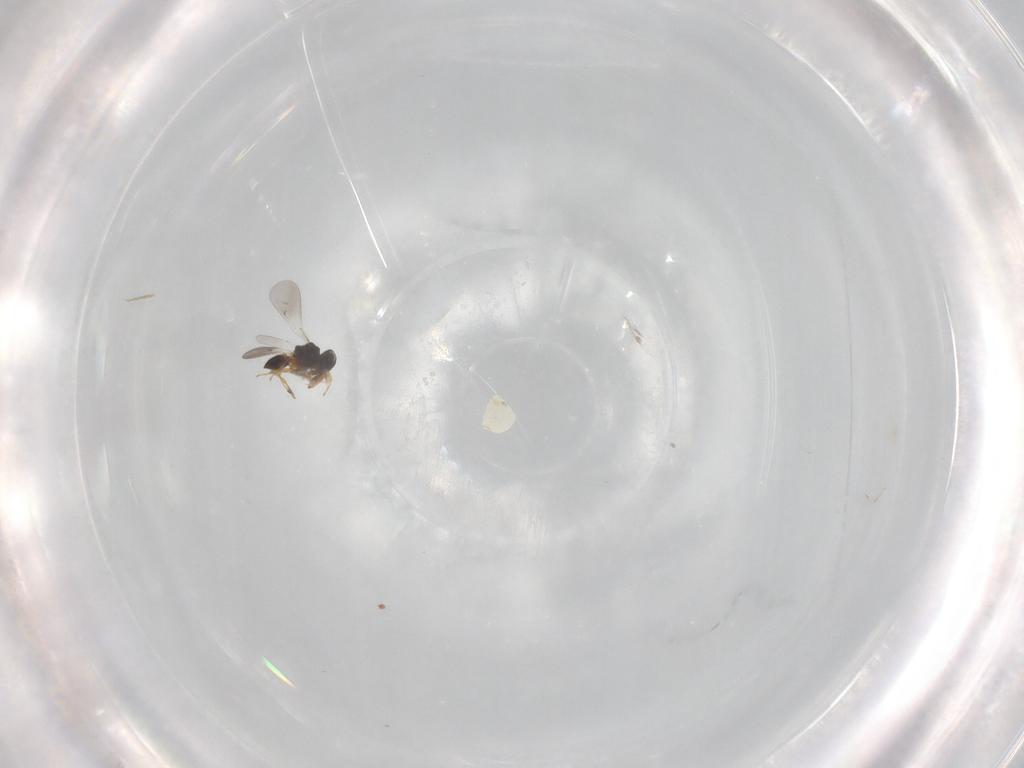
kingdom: Animalia
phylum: Arthropoda
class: Insecta
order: Hymenoptera
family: Platygastridae
